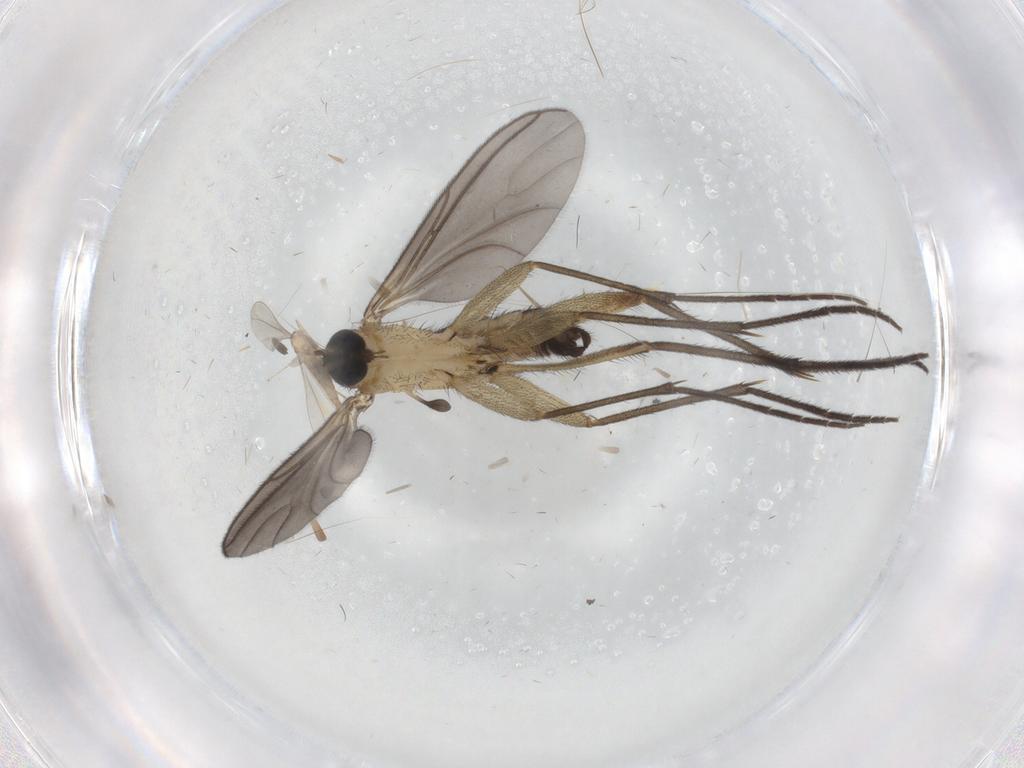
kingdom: Animalia
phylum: Arthropoda
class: Insecta
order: Diptera
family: Sciaridae
